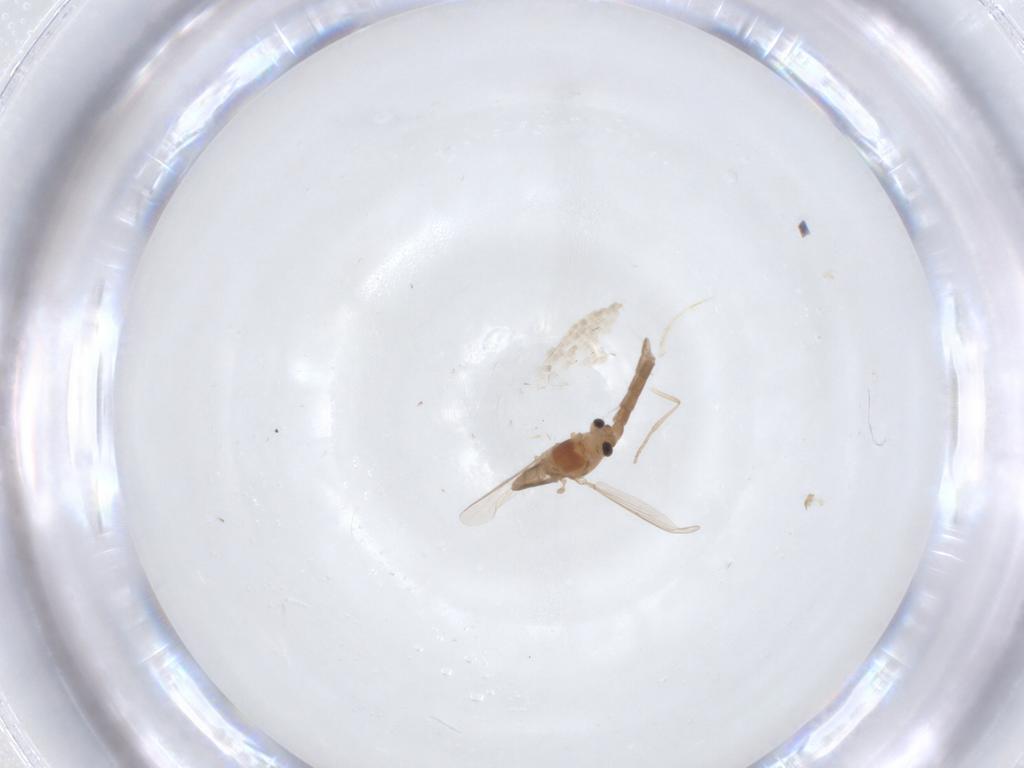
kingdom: Animalia
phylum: Arthropoda
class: Insecta
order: Diptera
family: Chironomidae
